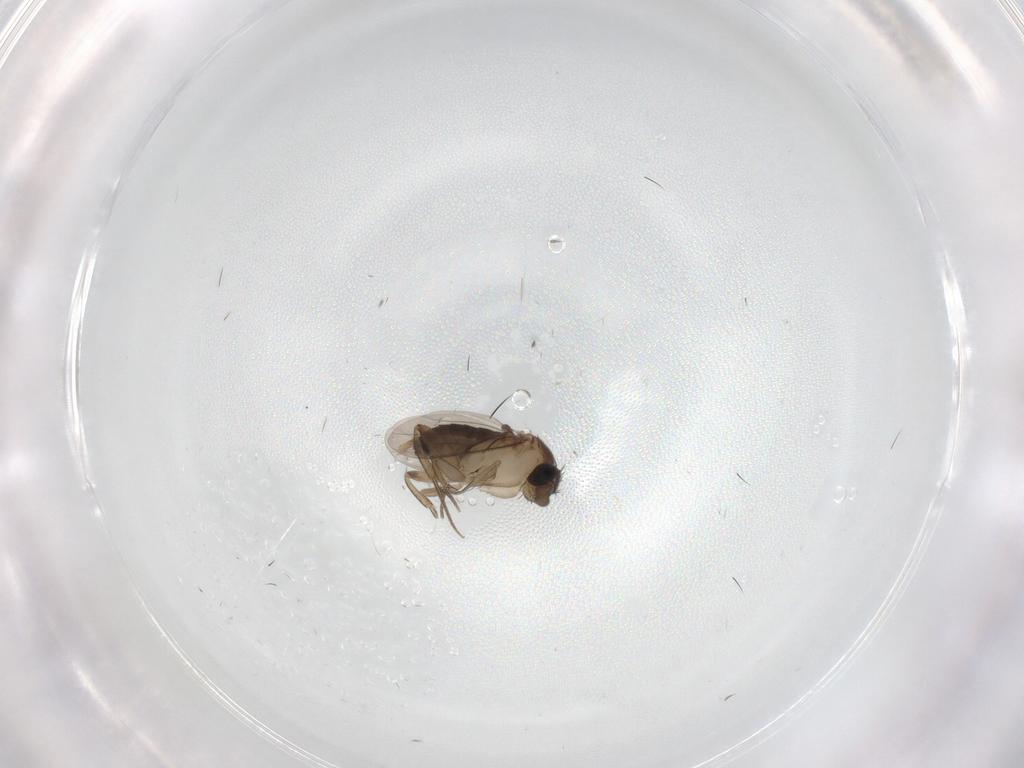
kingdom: Animalia
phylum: Arthropoda
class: Insecta
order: Diptera
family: Phoridae
